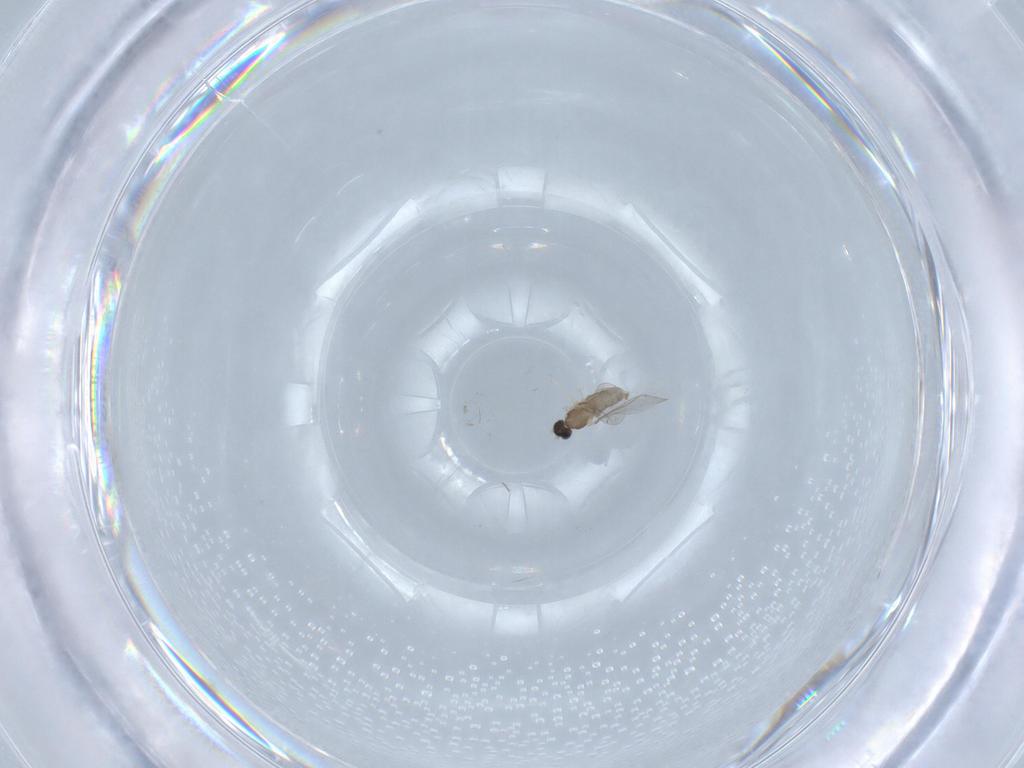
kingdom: Animalia
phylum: Arthropoda
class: Insecta
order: Diptera
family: Cecidomyiidae
